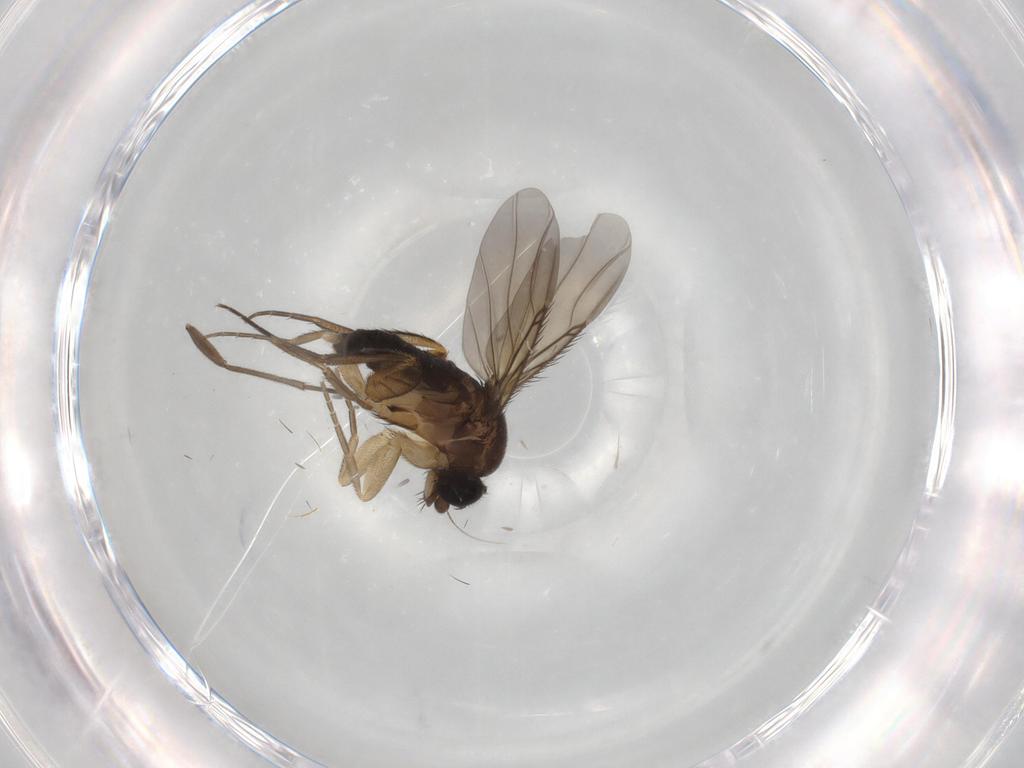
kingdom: Animalia
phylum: Arthropoda
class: Insecta
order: Diptera
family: Phoridae
